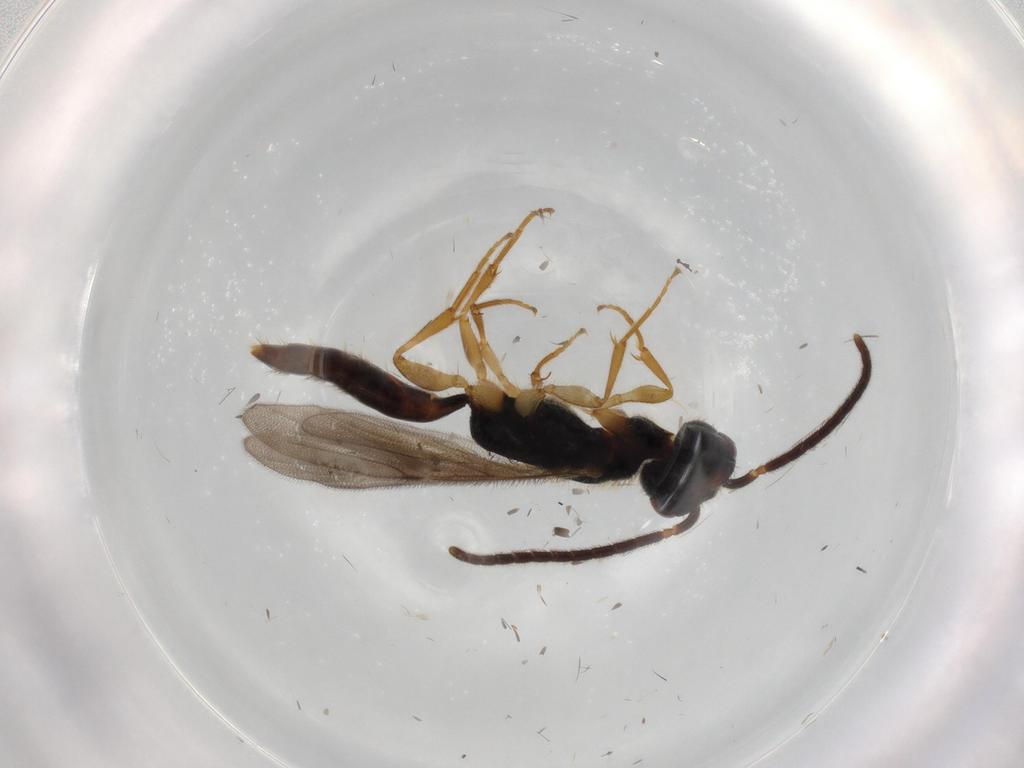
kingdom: Animalia
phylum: Arthropoda
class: Insecta
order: Hymenoptera
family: Bethylidae
